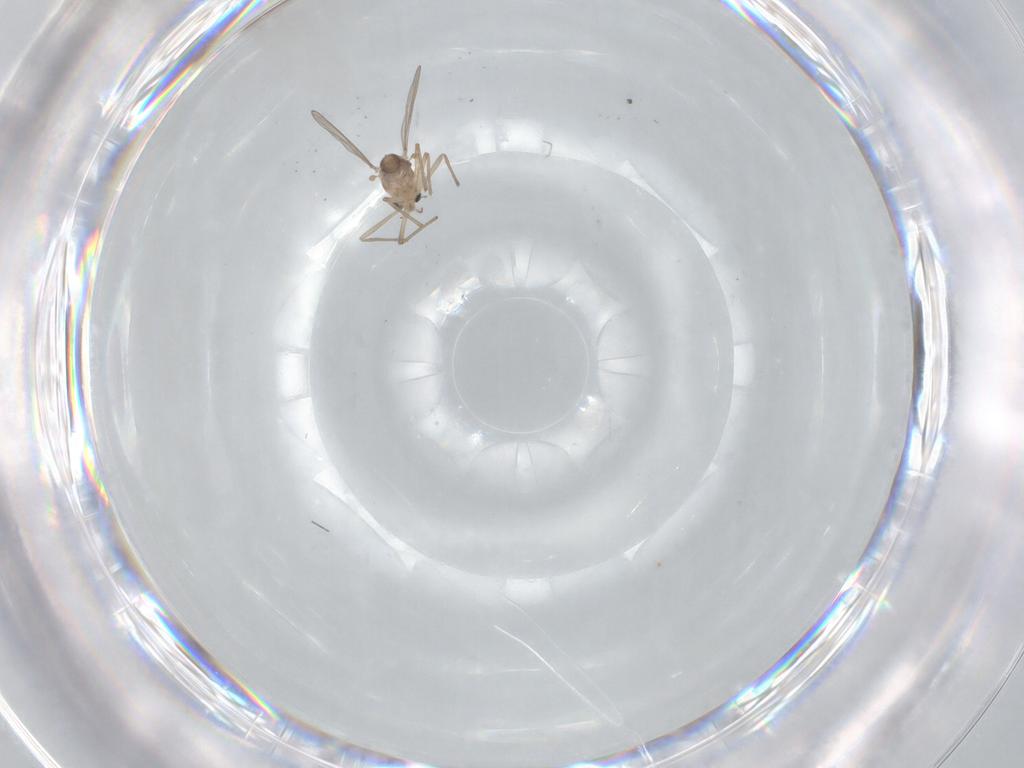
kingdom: Animalia
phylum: Arthropoda
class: Insecta
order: Diptera
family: Chironomidae
